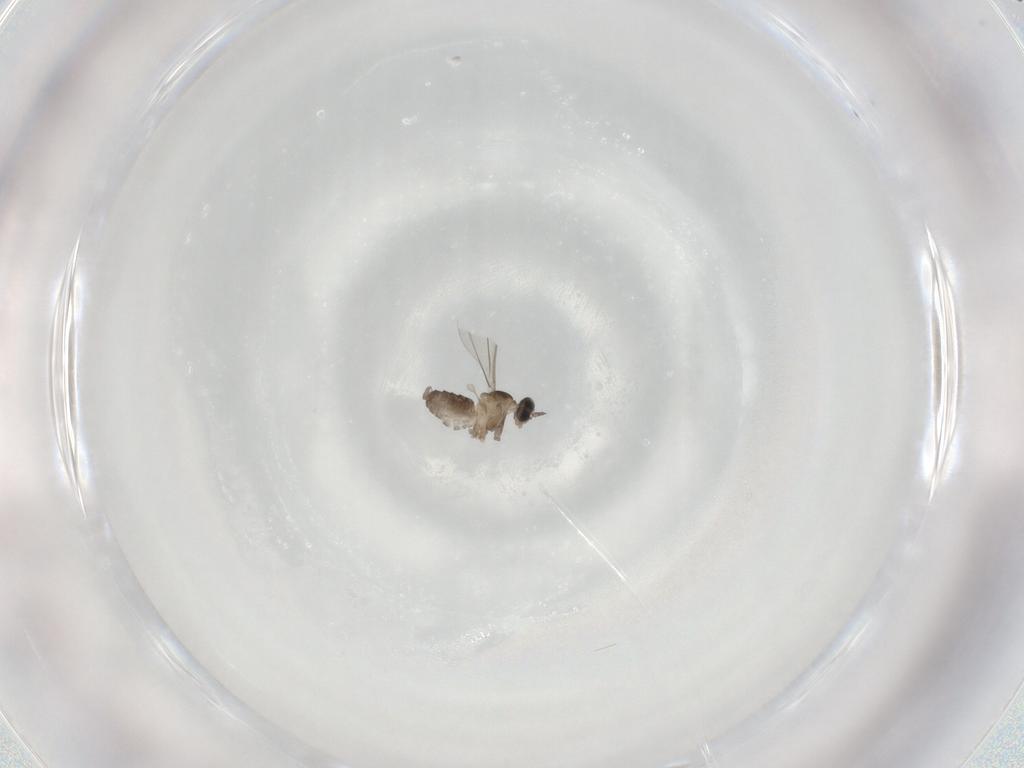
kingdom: Animalia
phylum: Arthropoda
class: Insecta
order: Diptera
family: Cecidomyiidae
